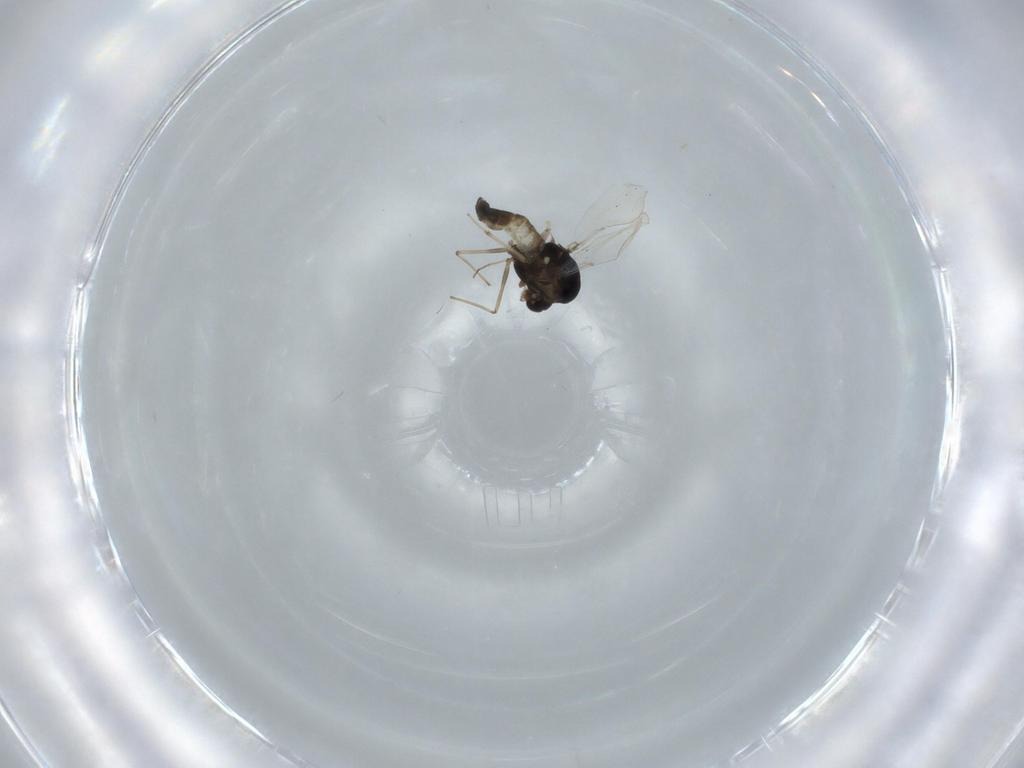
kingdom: Animalia
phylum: Arthropoda
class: Insecta
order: Diptera
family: Chironomidae
